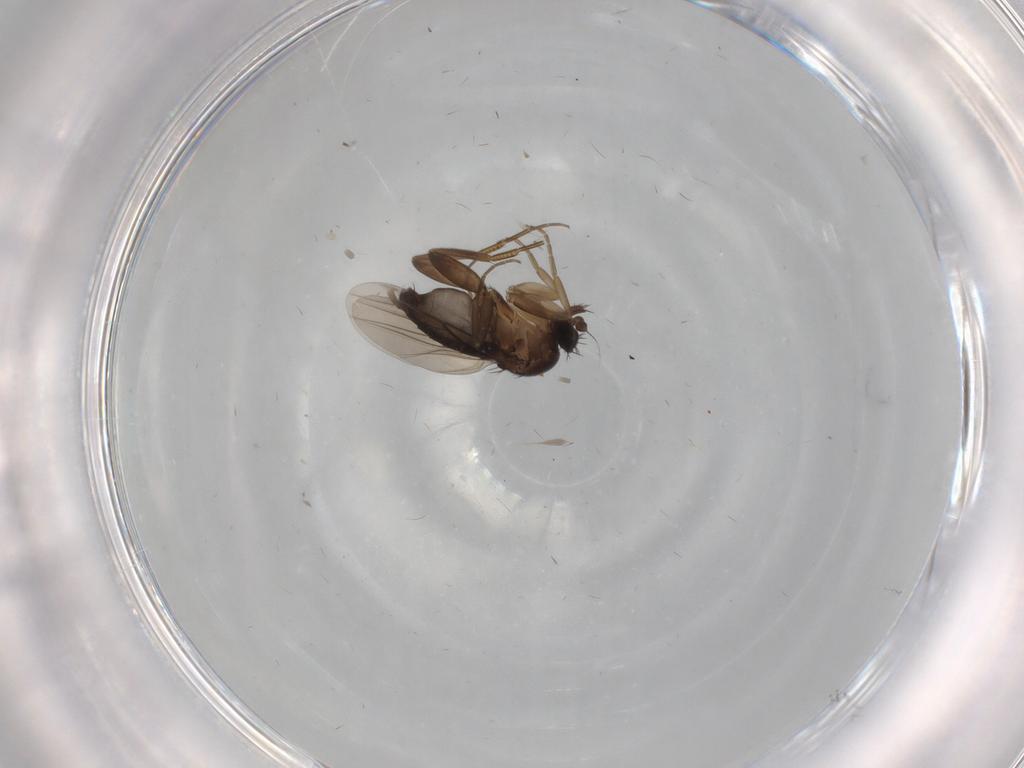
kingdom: Animalia
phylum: Arthropoda
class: Insecta
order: Diptera
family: Phoridae
